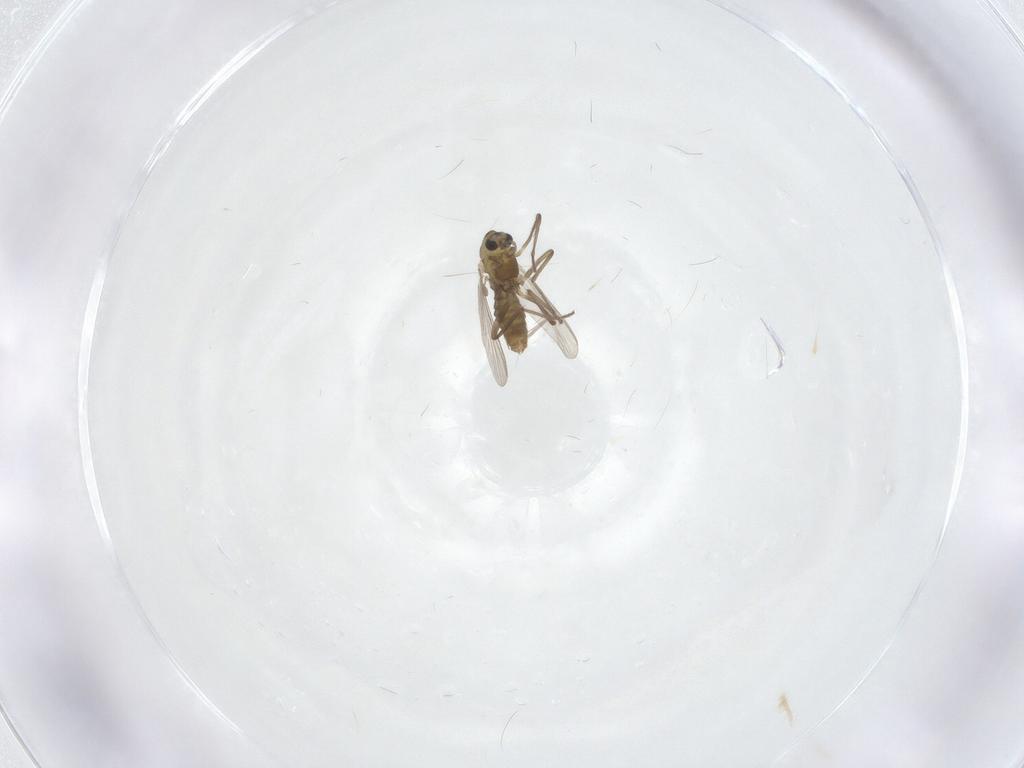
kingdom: Animalia
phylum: Arthropoda
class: Insecta
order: Diptera
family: Chironomidae
